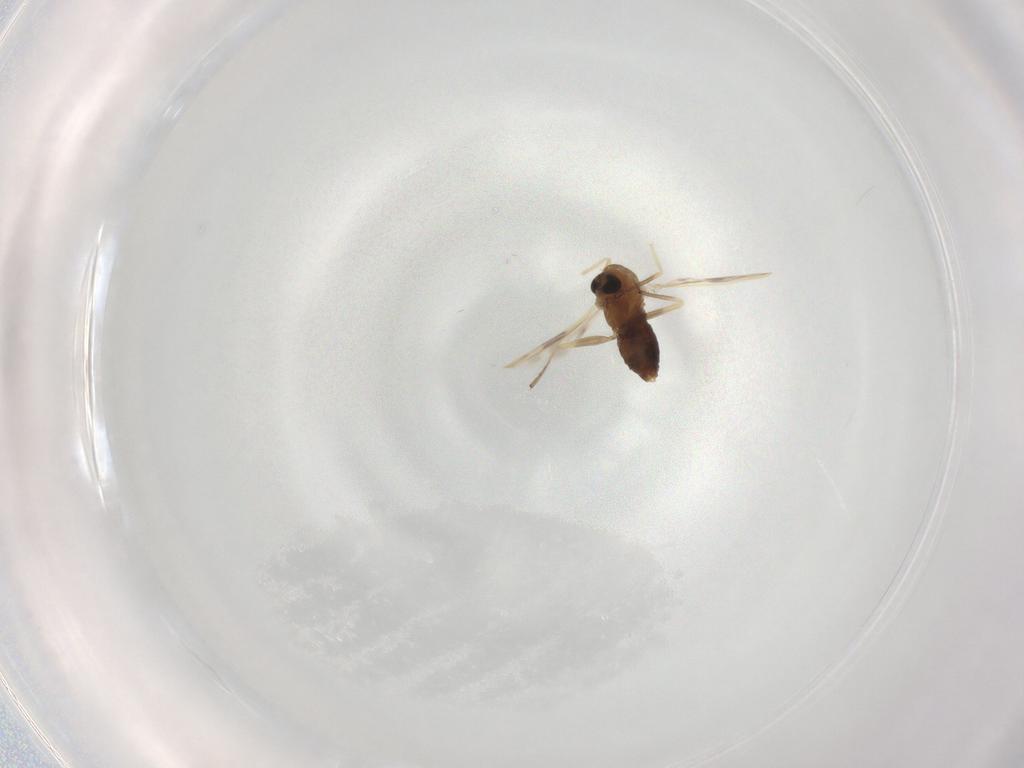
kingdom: Animalia
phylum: Arthropoda
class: Insecta
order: Diptera
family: Chironomidae
